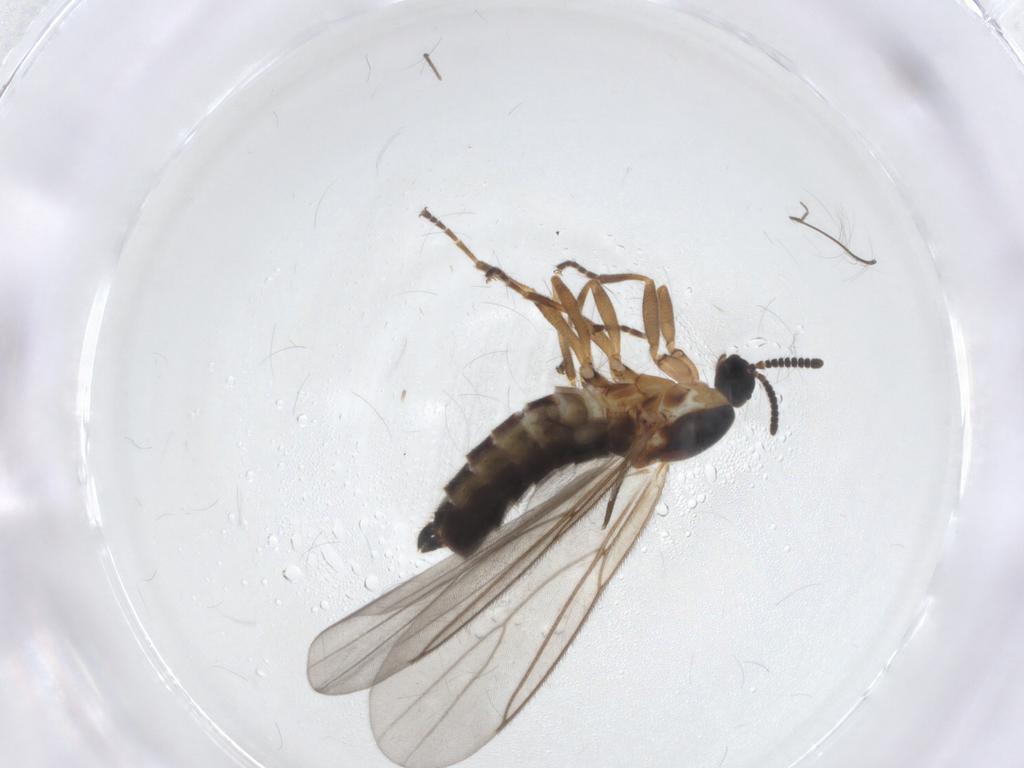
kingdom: Animalia
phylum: Arthropoda
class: Insecta
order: Diptera
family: Scatopsidae
